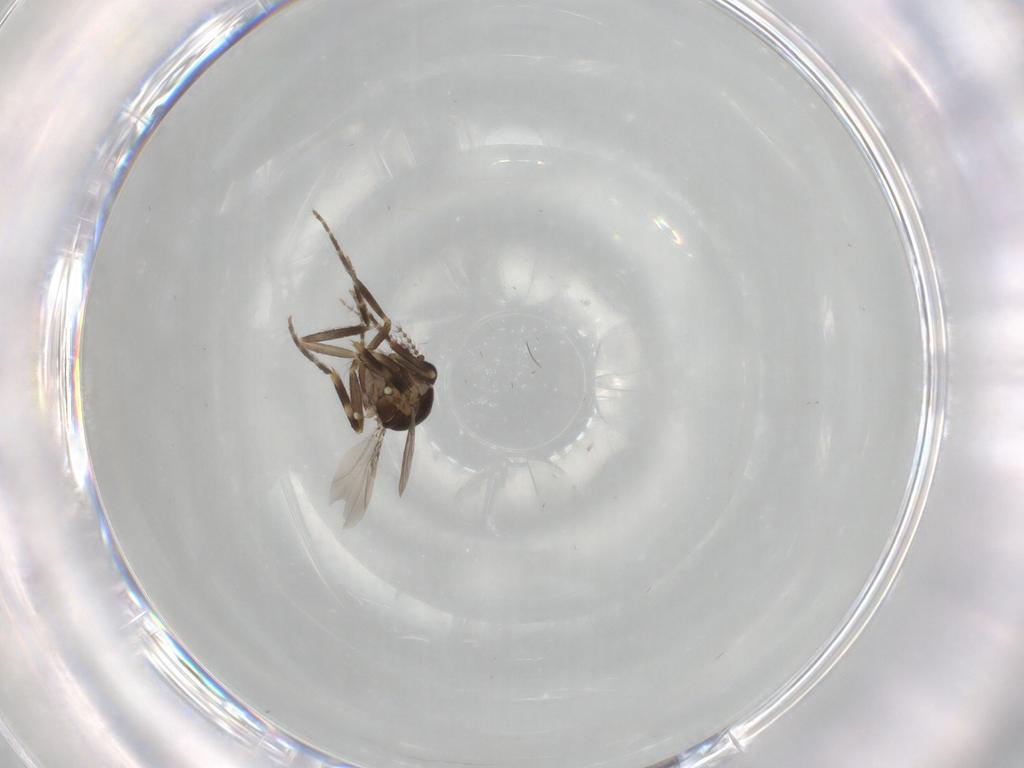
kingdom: Animalia
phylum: Arthropoda
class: Insecta
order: Diptera
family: Ceratopogonidae
